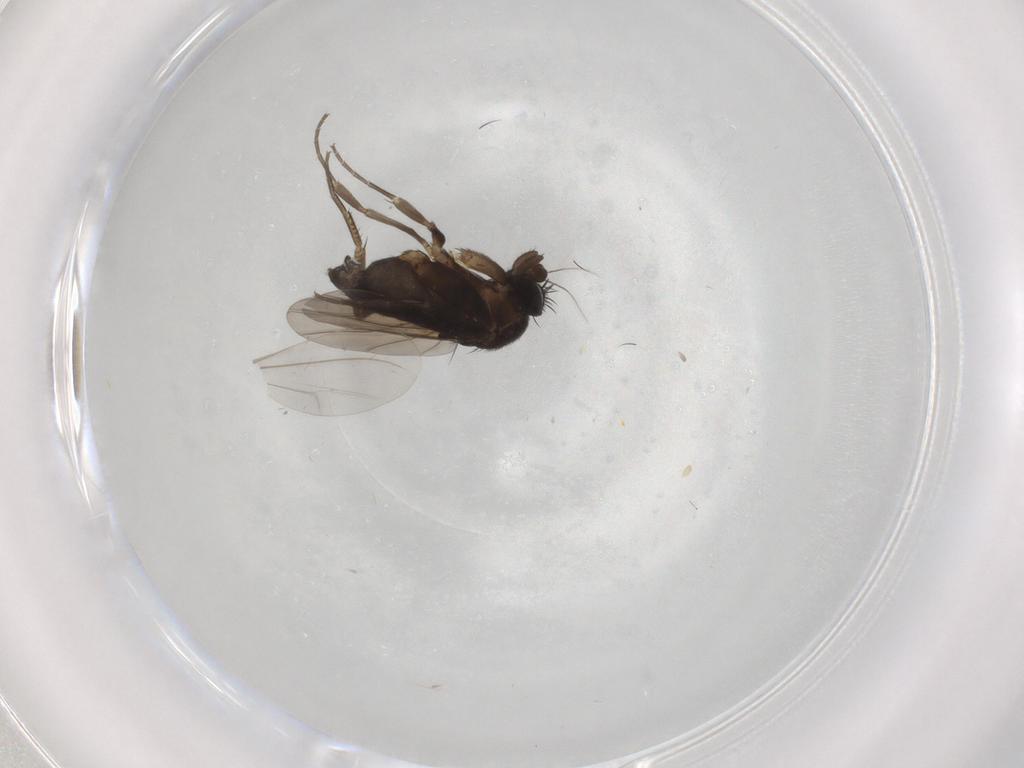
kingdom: Animalia
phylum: Arthropoda
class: Insecta
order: Diptera
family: Phoridae
